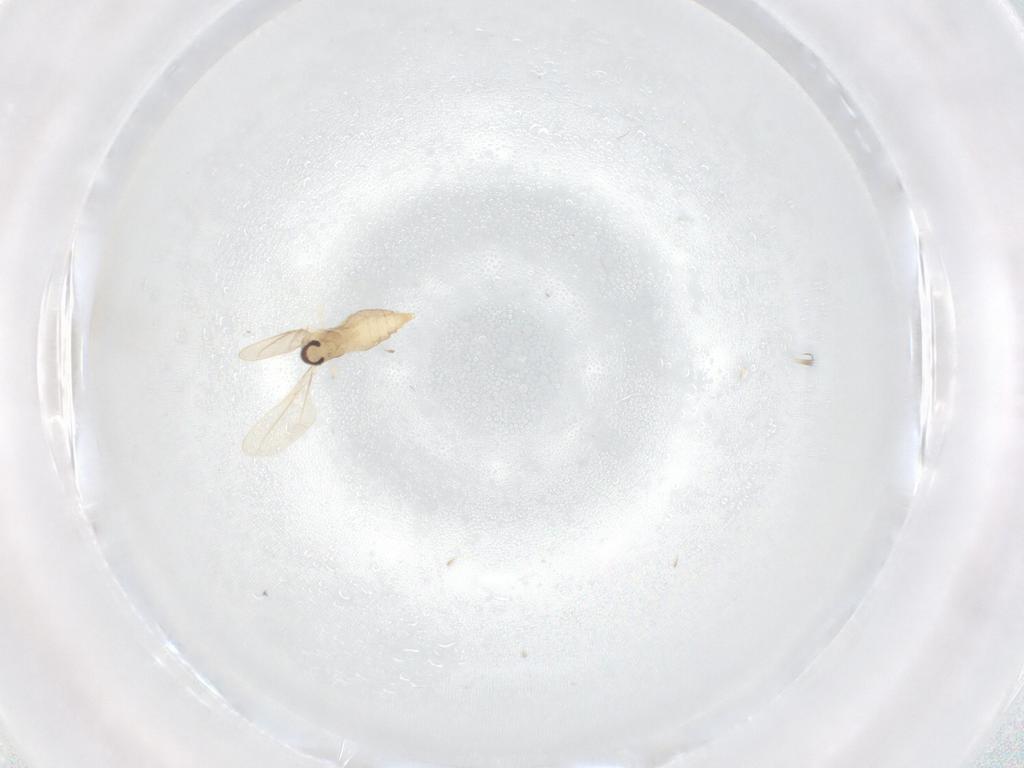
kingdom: Animalia
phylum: Arthropoda
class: Insecta
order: Diptera
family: Cecidomyiidae
